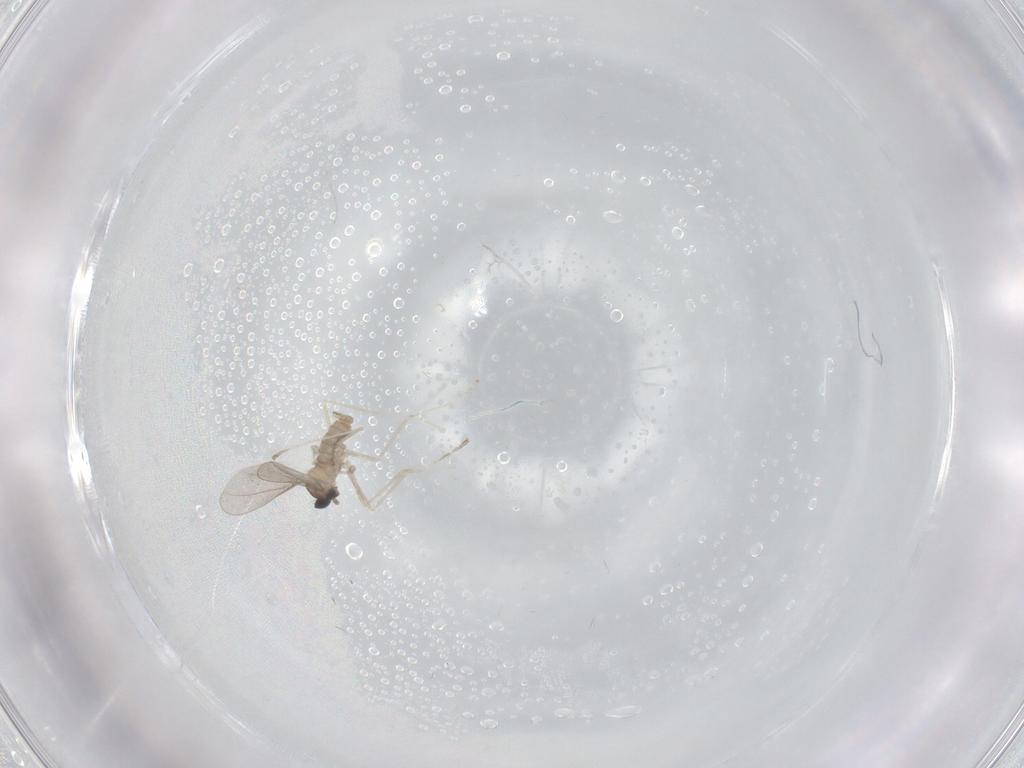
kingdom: Animalia
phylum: Arthropoda
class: Insecta
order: Diptera
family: Cecidomyiidae
